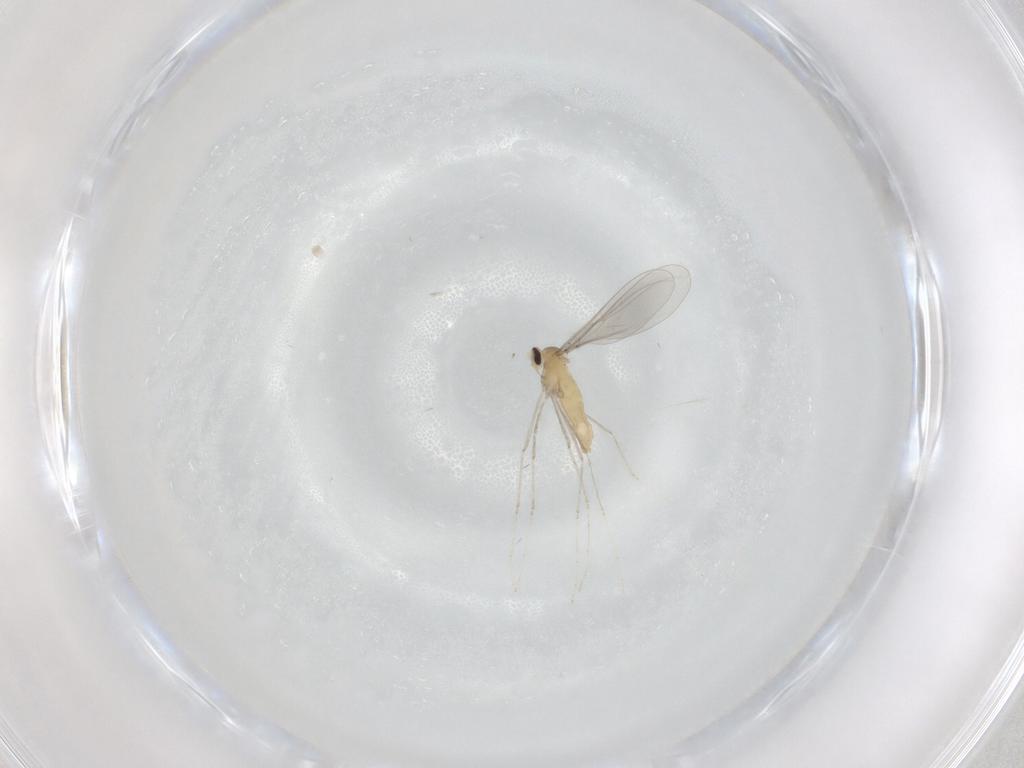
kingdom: Animalia
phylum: Arthropoda
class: Insecta
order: Diptera
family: Cecidomyiidae
